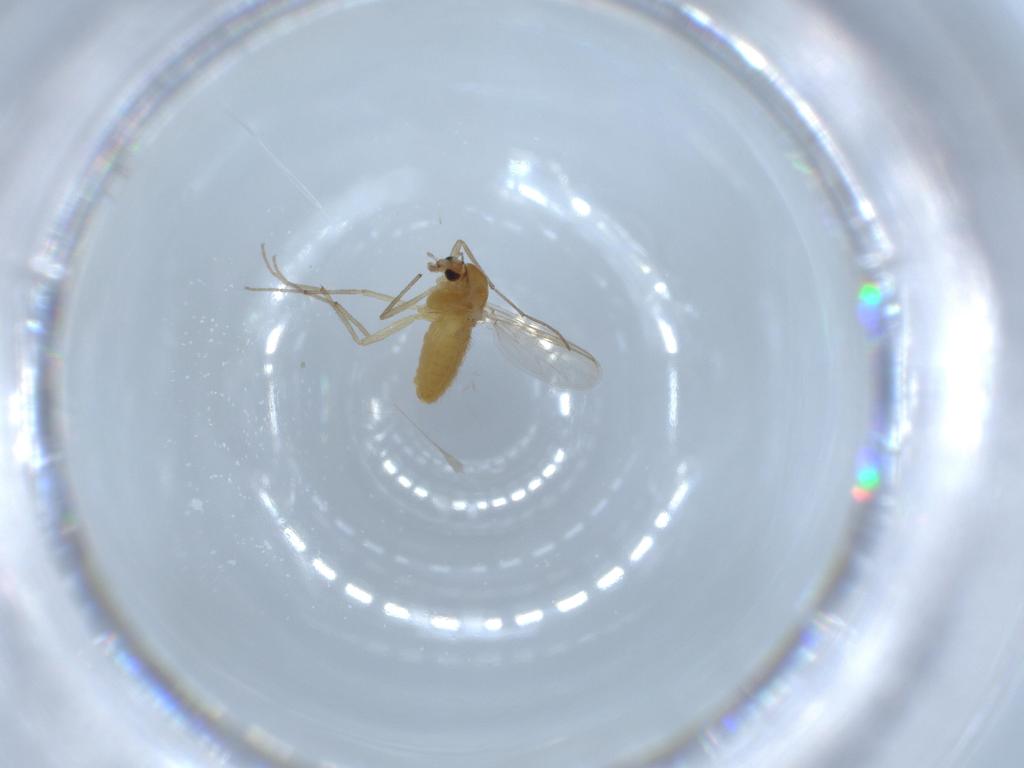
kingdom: Animalia
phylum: Arthropoda
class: Insecta
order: Diptera
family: Chironomidae
